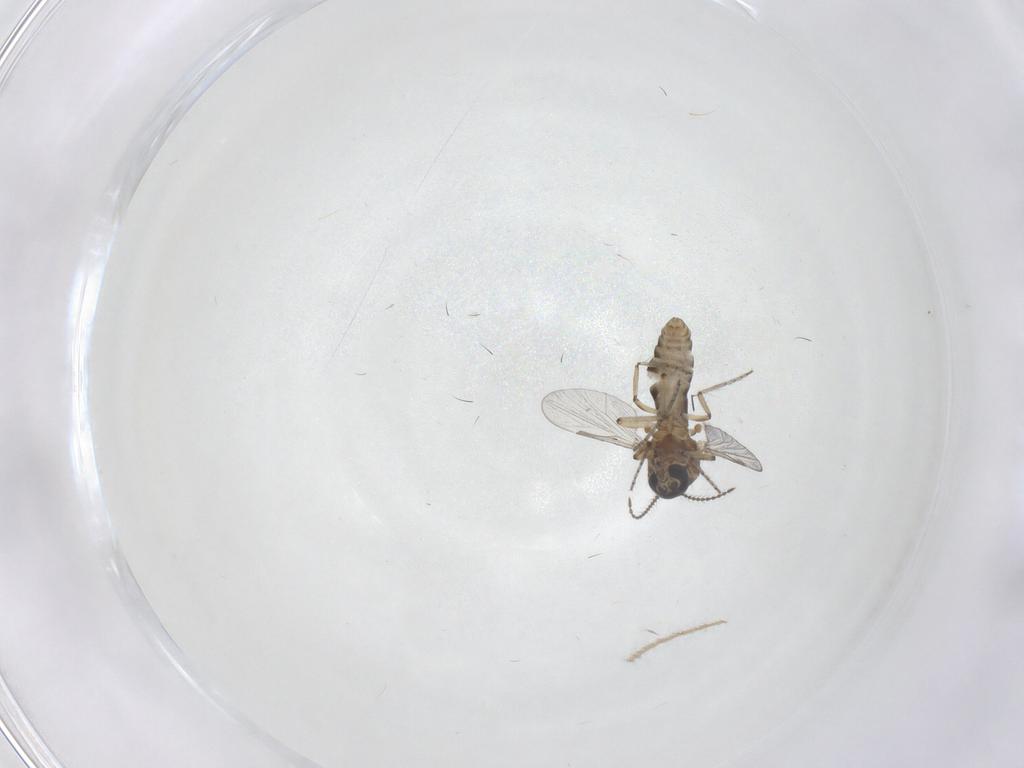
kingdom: Animalia
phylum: Arthropoda
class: Insecta
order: Diptera
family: Ceratopogonidae
